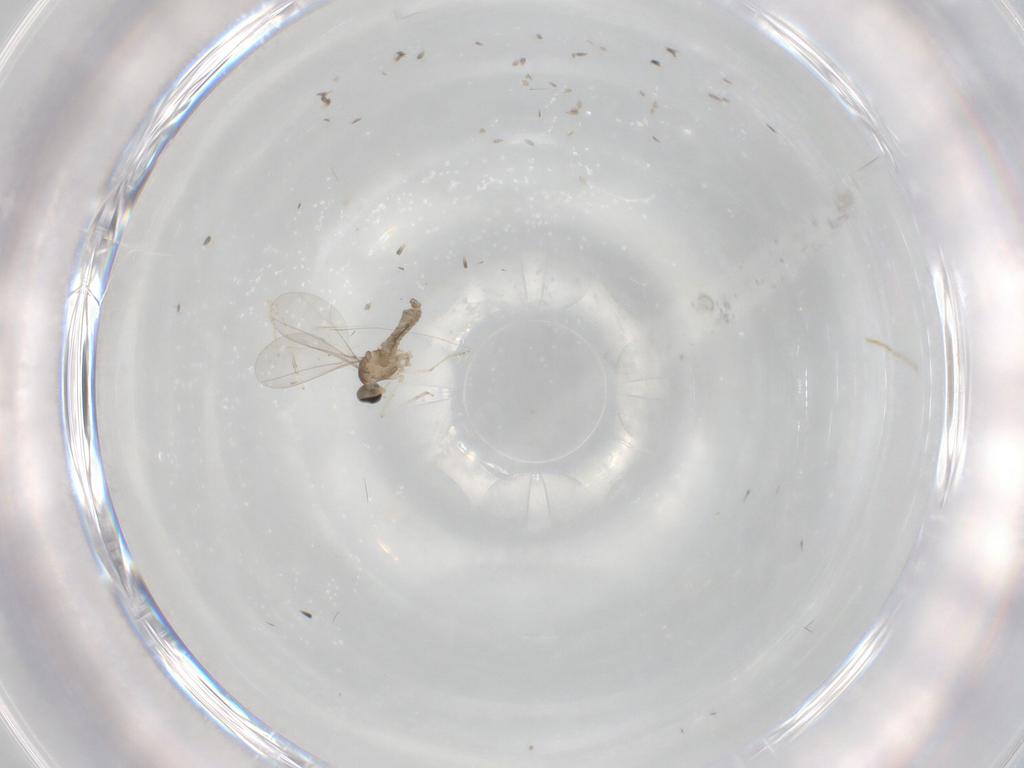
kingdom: Animalia
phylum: Arthropoda
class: Insecta
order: Diptera
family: Cecidomyiidae
